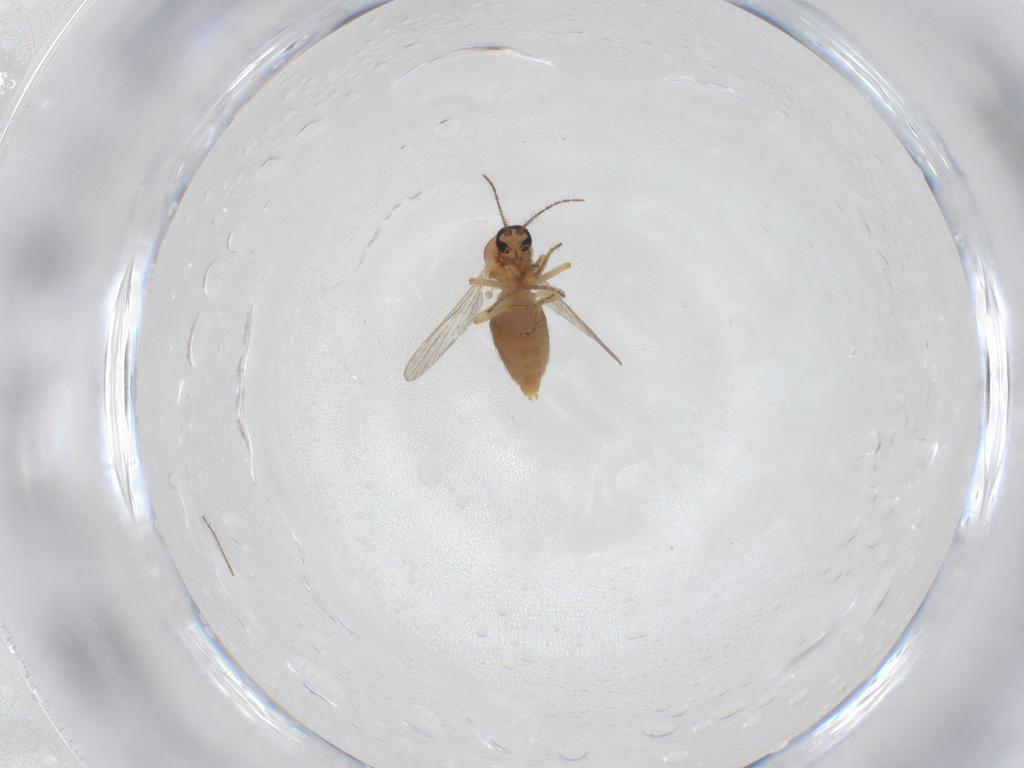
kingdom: Animalia
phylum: Arthropoda
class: Insecta
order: Diptera
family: Ceratopogonidae
